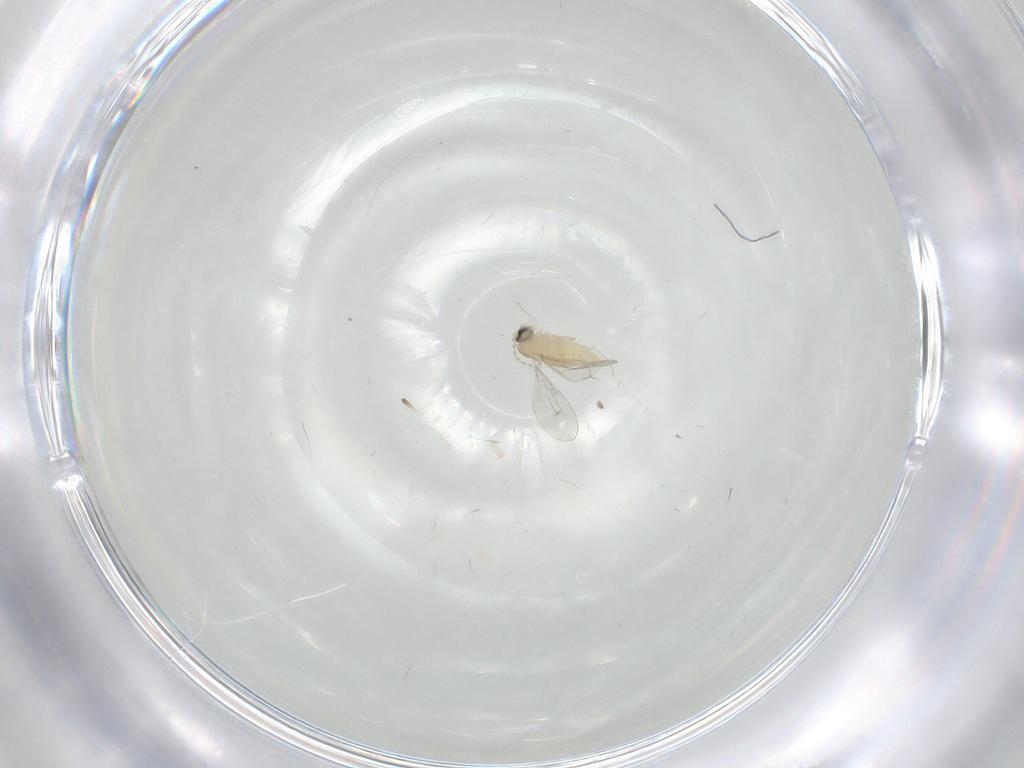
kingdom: Animalia
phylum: Arthropoda
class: Insecta
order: Diptera
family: Cecidomyiidae
